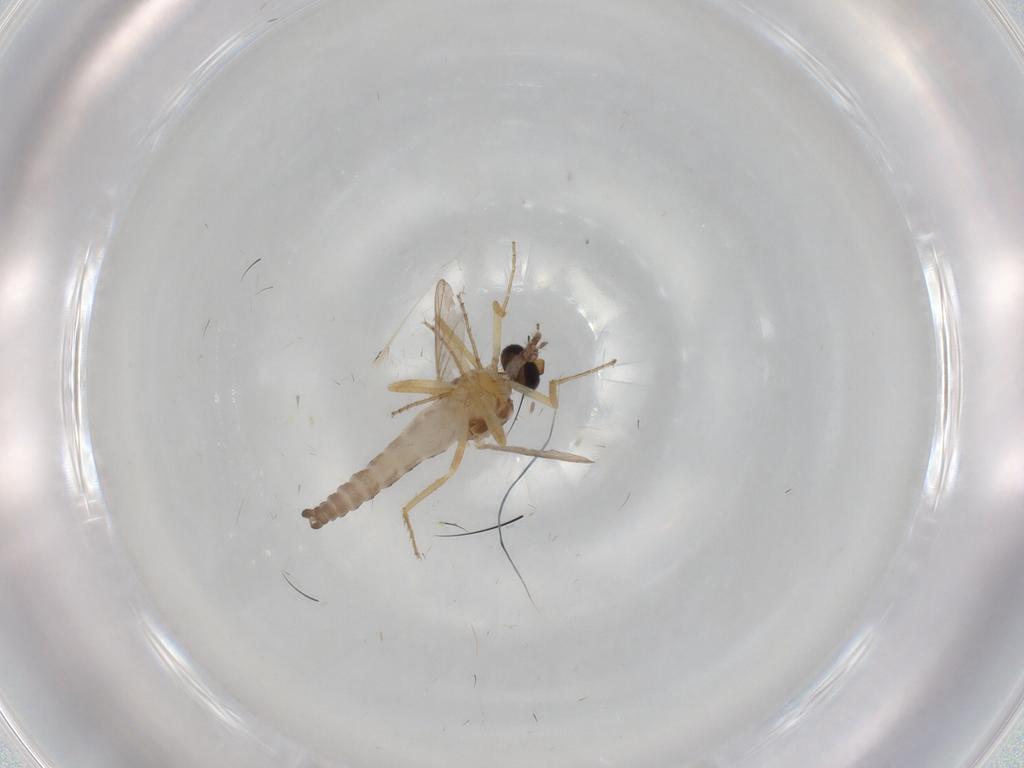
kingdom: Animalia
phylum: Arthropoda
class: Insecta
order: Diptera
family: Ceratopogonidae
